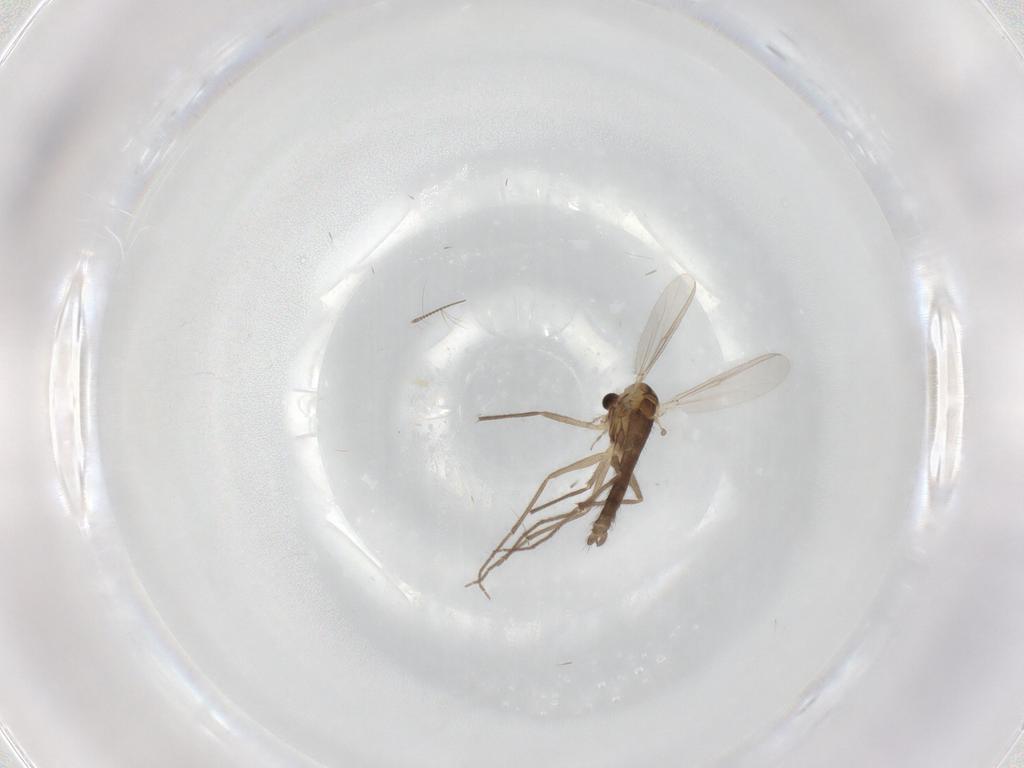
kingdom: Animalia
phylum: Arthropoda
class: Insecta
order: Diptera
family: Chironomidae
